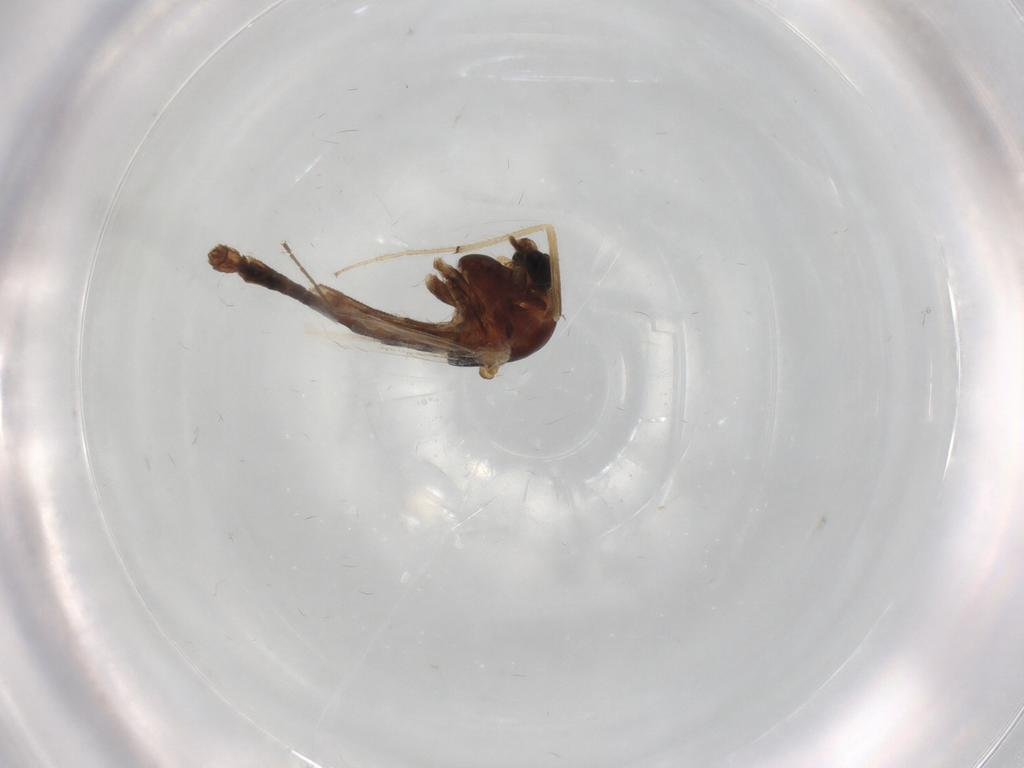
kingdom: Animalia
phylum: Arthropoda
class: Insecta
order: Diptera
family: Chironomidae
